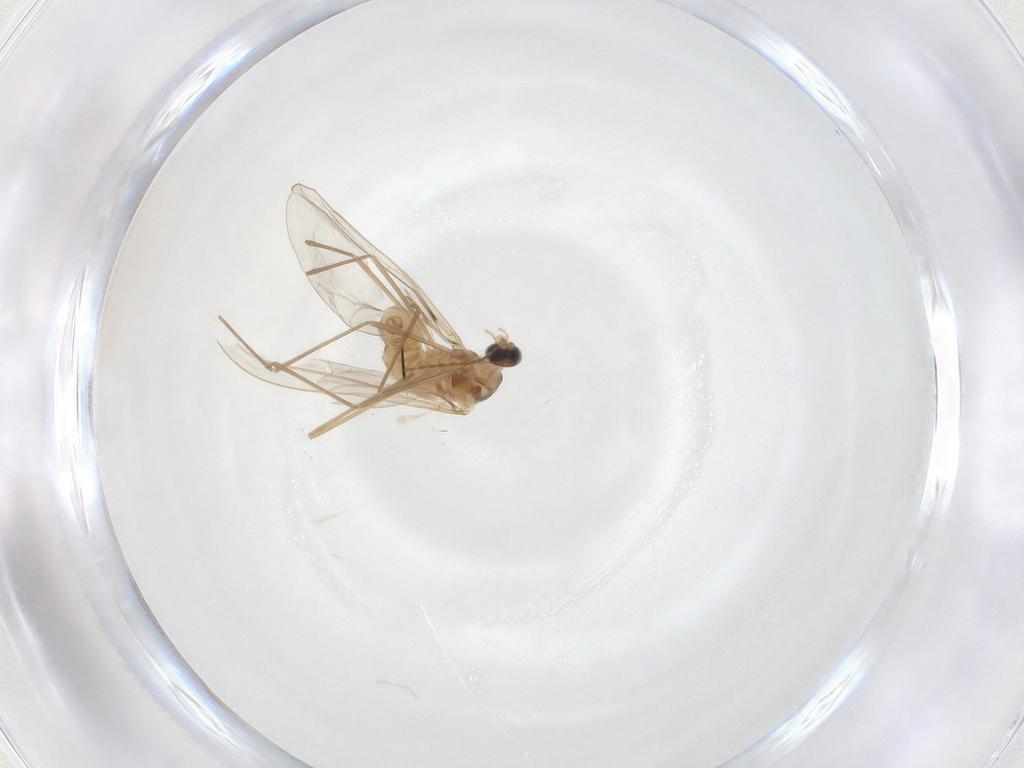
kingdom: Animalia
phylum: Arthropoda
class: Insecta
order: Diptera
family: Cecidomyiidae
